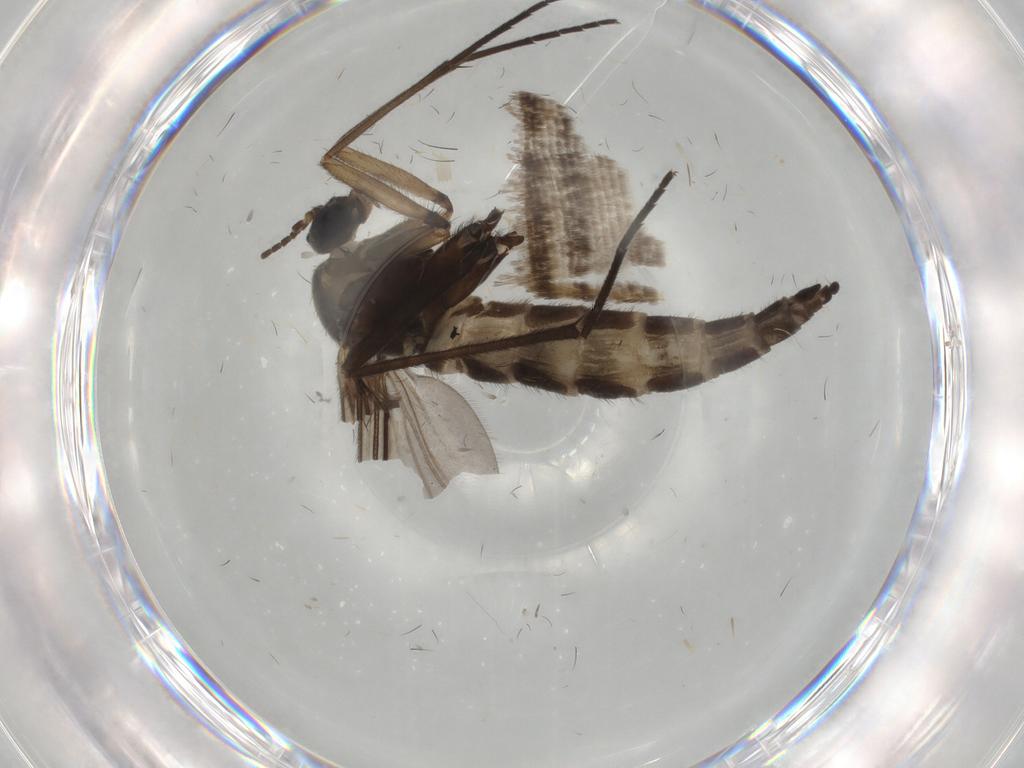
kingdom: Animalia
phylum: Arthropoda
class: Insecta
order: Diptera
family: Sciaridae
